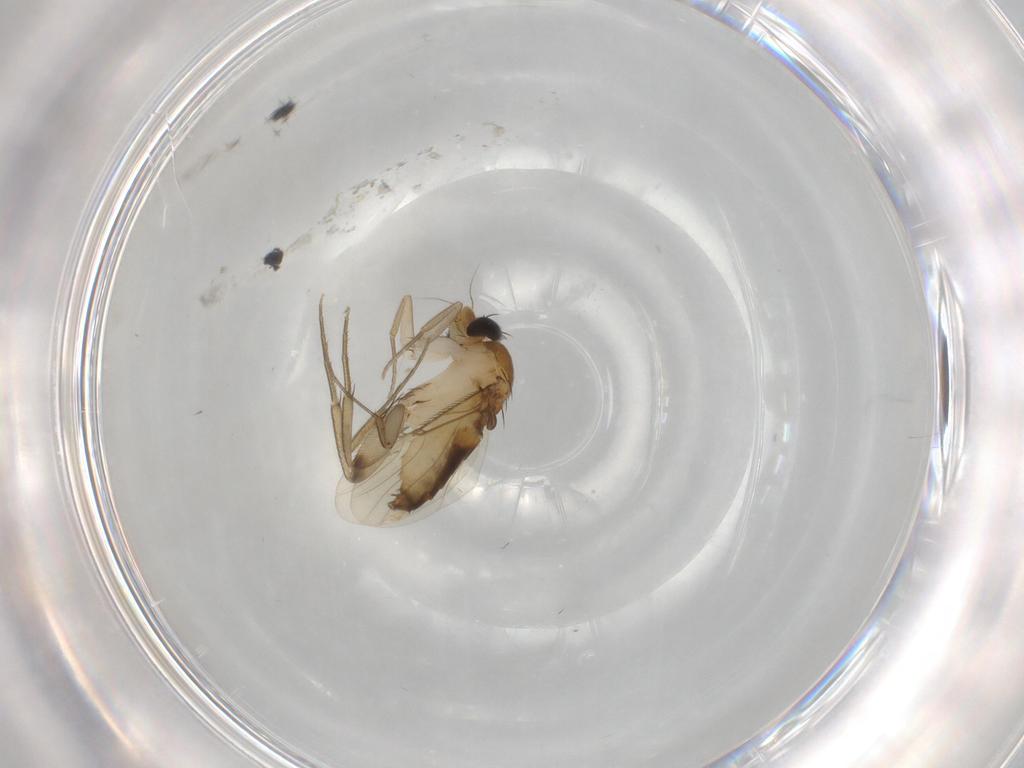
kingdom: Animalia
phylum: Arthropoda
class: Insecta
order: Diptera
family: Phoridae
